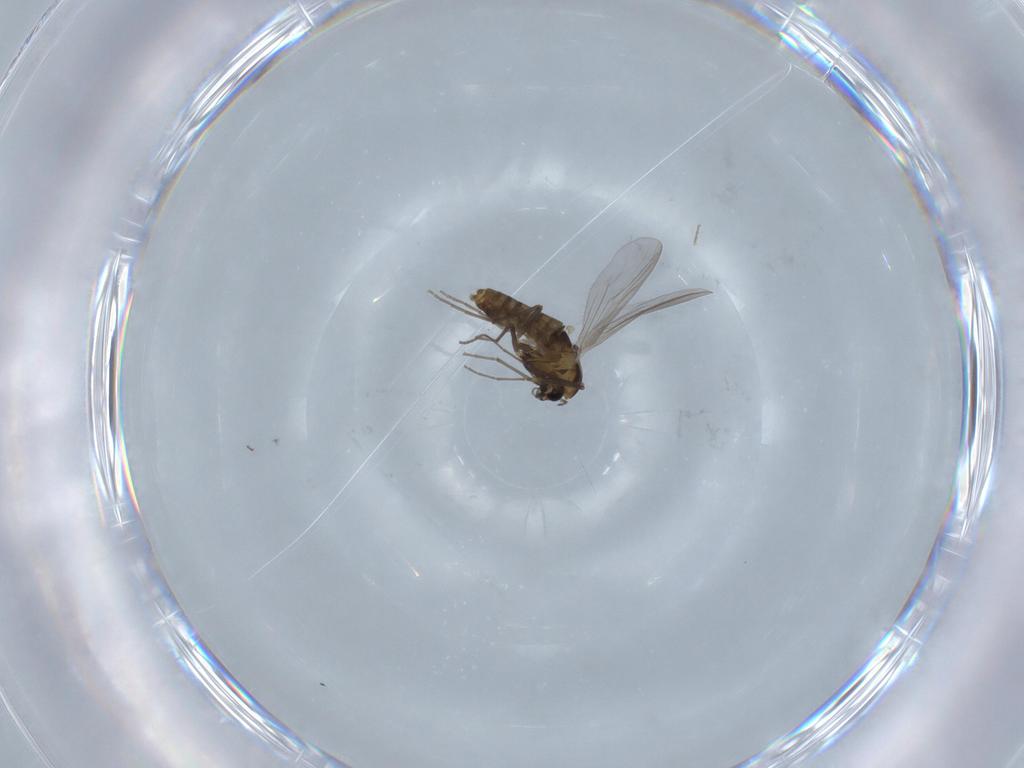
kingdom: Animalia
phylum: Arthropoda
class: Insecta
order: Diptera
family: Chironomidae
